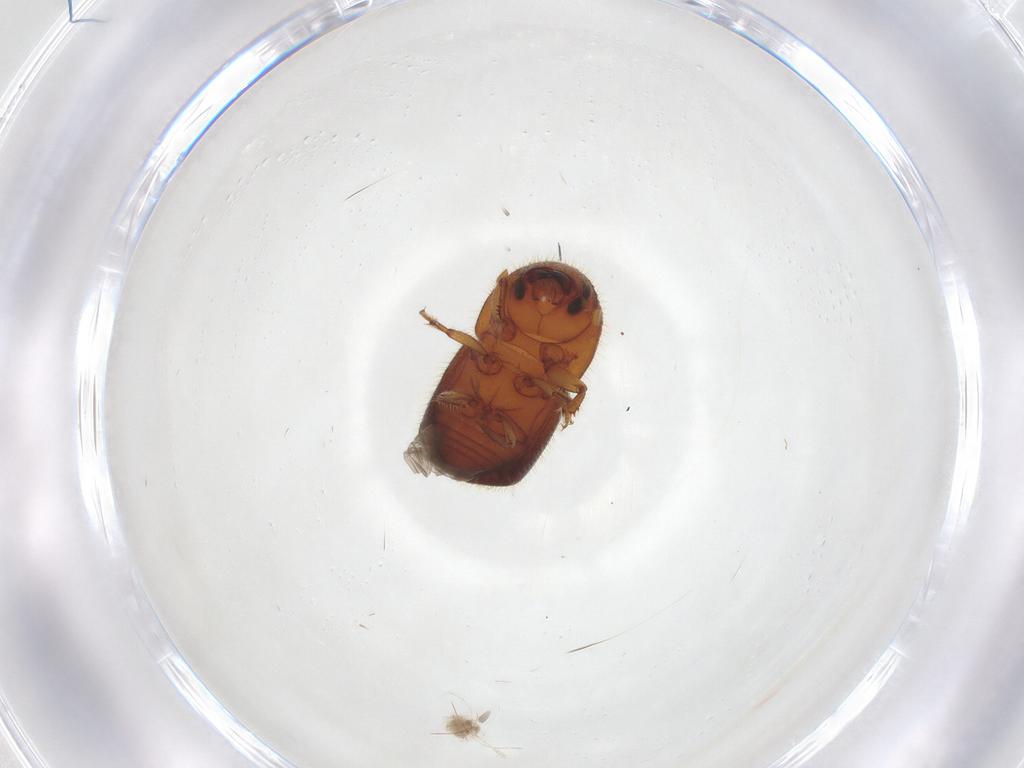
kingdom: Animalia
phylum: Arthropoda
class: Insecta
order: Coleoptera
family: Curculionidae
